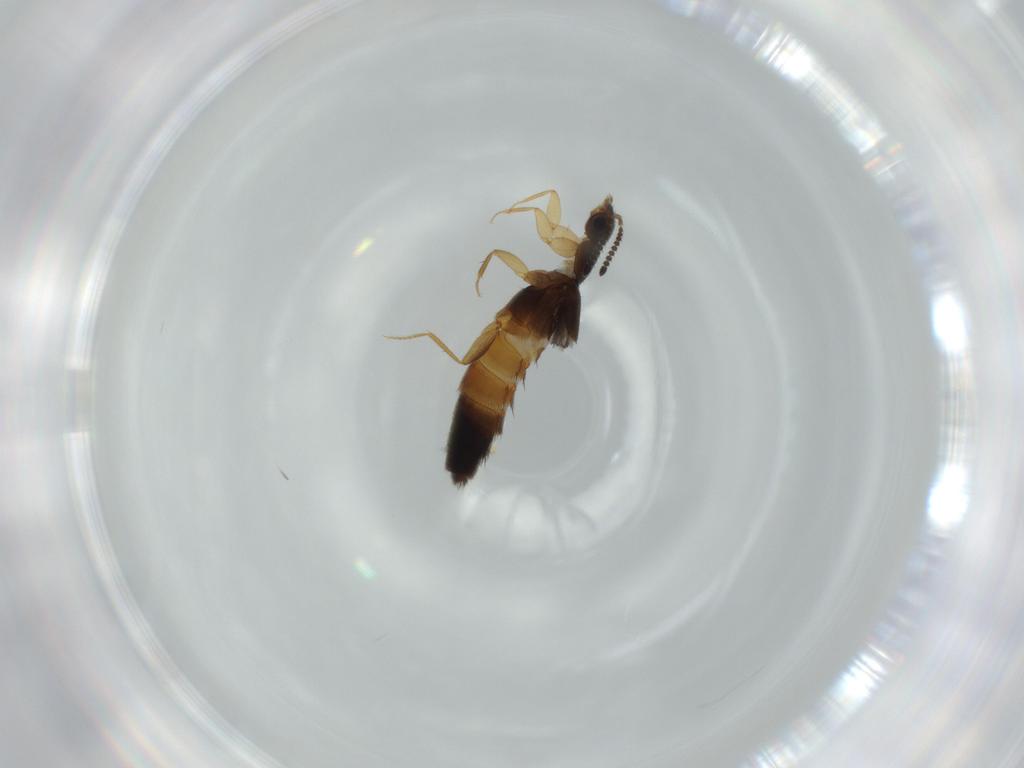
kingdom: Animalia
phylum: Arthropoda
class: Insecta
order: Coleoptera
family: Staphylinidae
